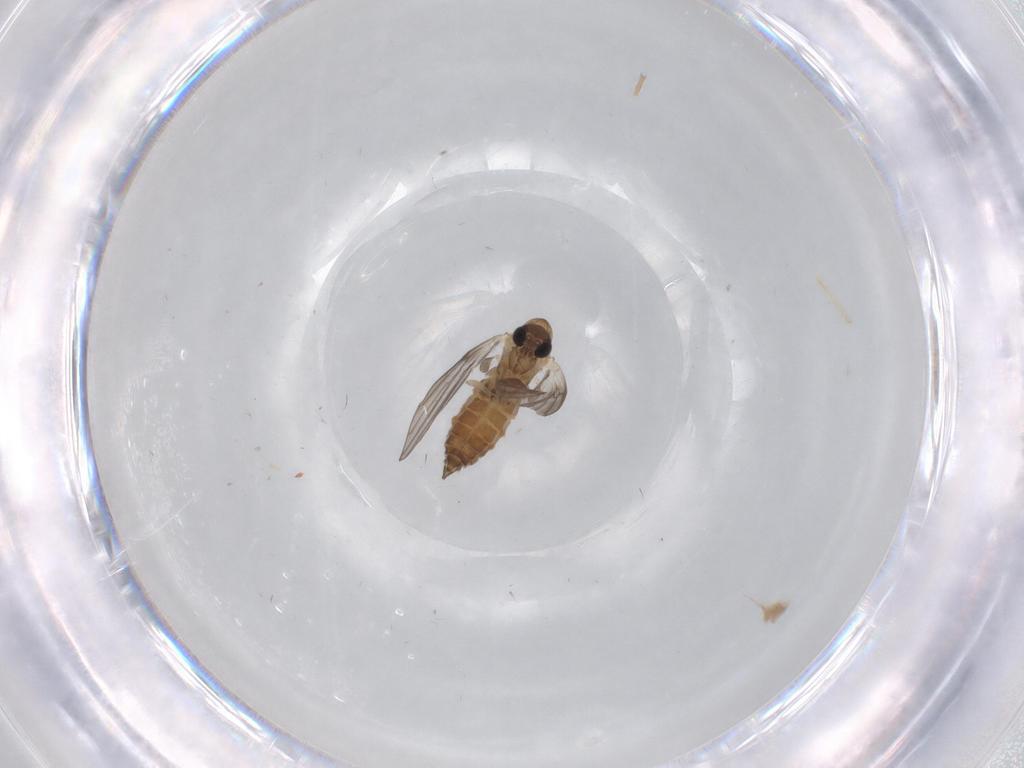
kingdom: Animalia
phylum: Arthropoda
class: Insecta
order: Diptera
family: Limoniidae
